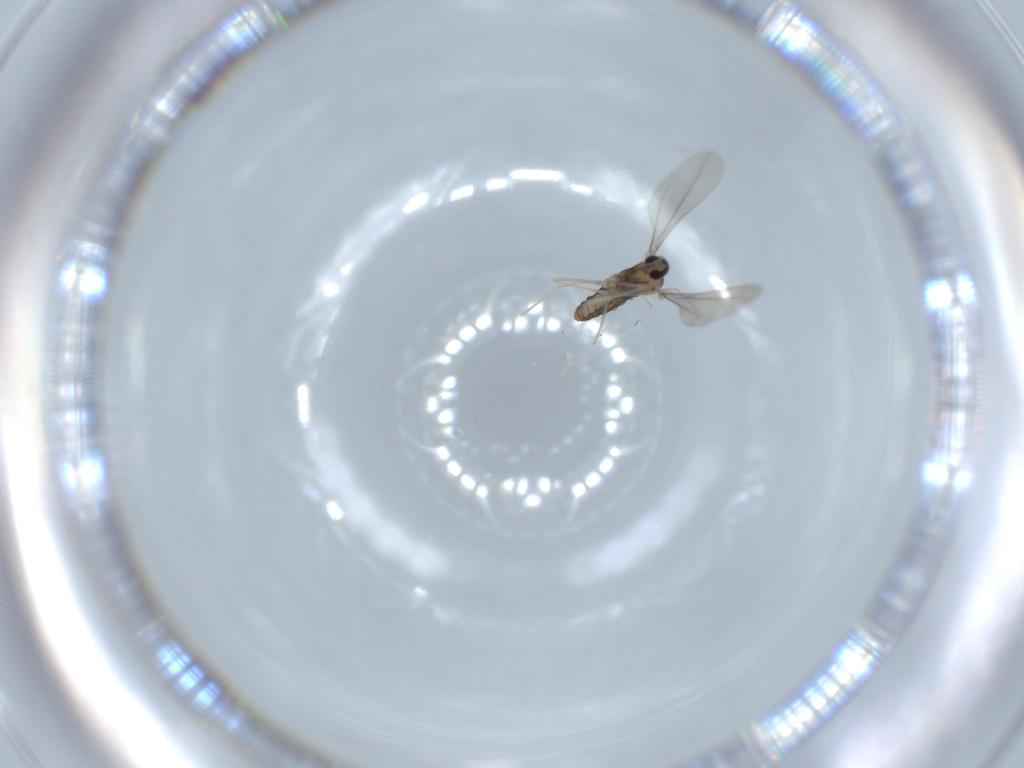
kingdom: Animalia
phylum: Arthropoda
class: Insecta
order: Diptera
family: Cecidomyiidae
